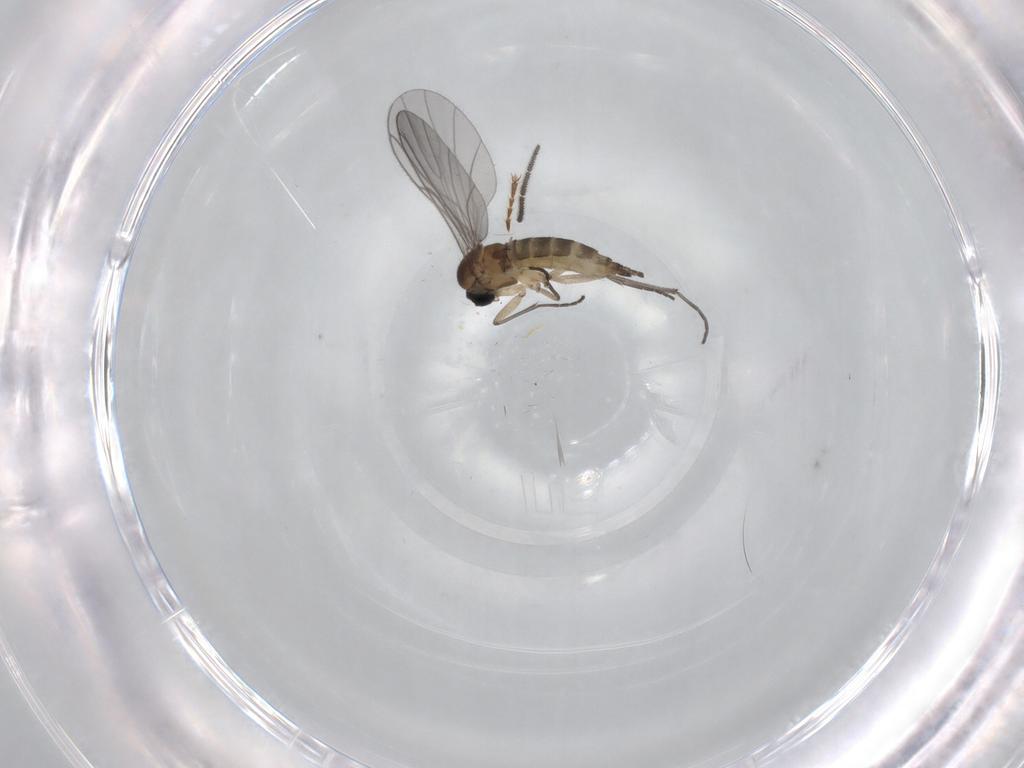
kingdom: Animalia
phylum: Arthropoda
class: Insecta
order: Diptera
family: Sciaridae
